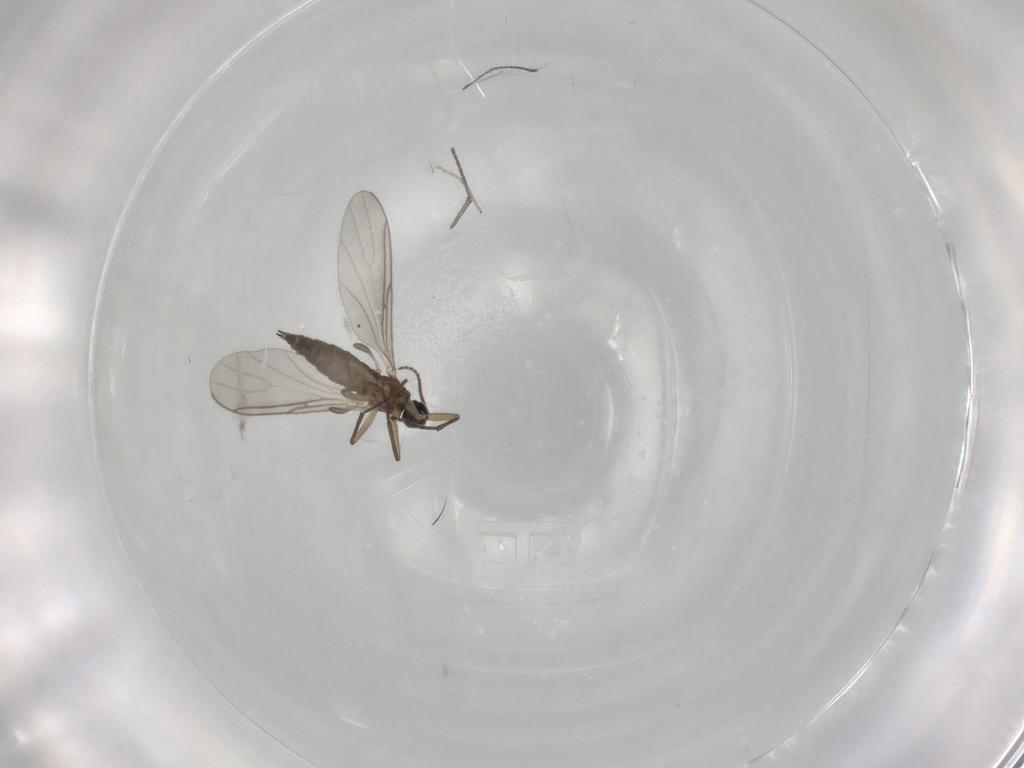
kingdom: Animalia
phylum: Arthropoda
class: Insecta
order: Diptera
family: Sciaridae
